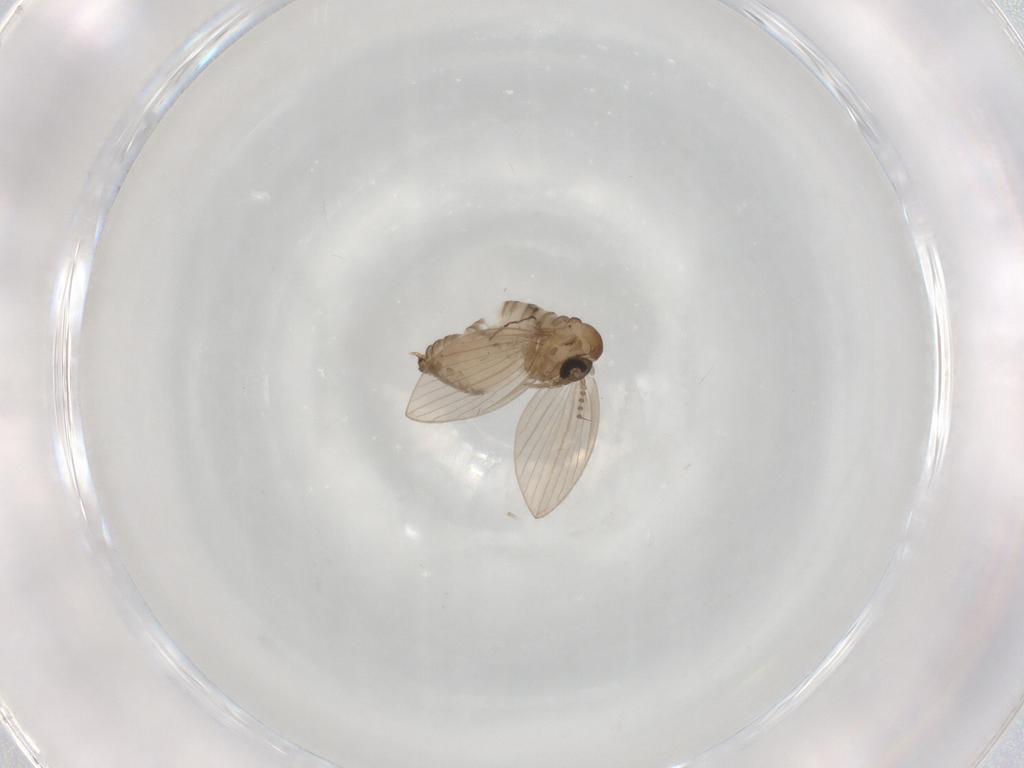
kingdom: Animalia
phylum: Arthropoda
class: Insecta
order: Diptera
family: Psychodidae
